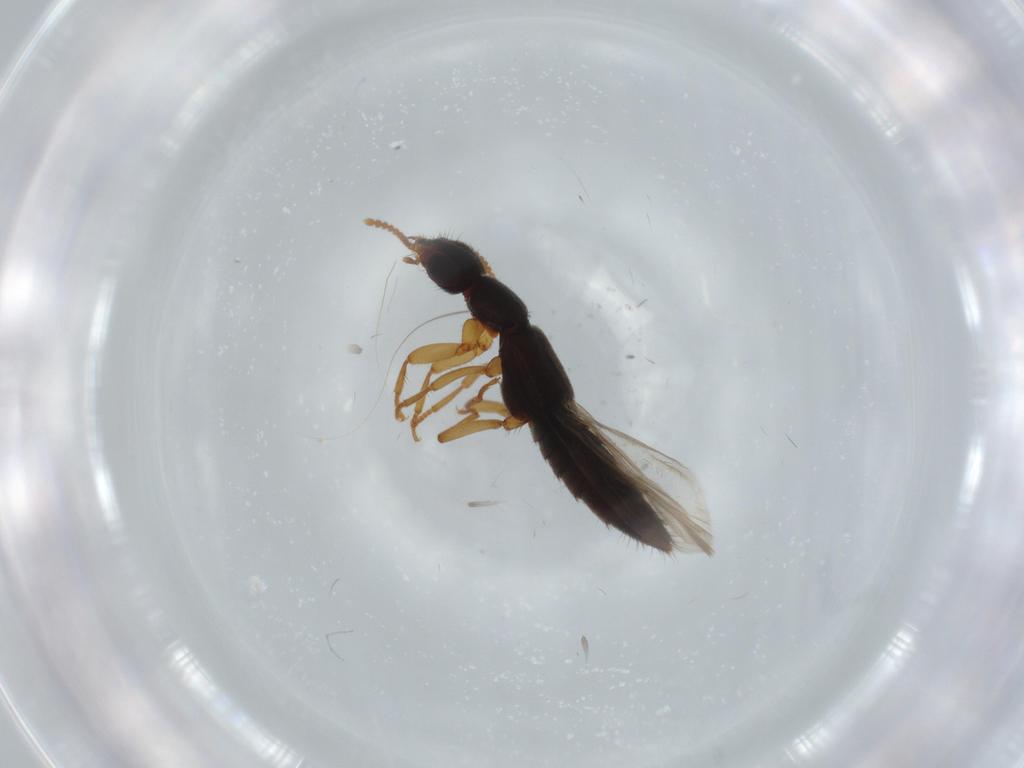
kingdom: Animalia
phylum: Arthropoda
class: Insecta
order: Coleoptera
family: Staphylinidae
